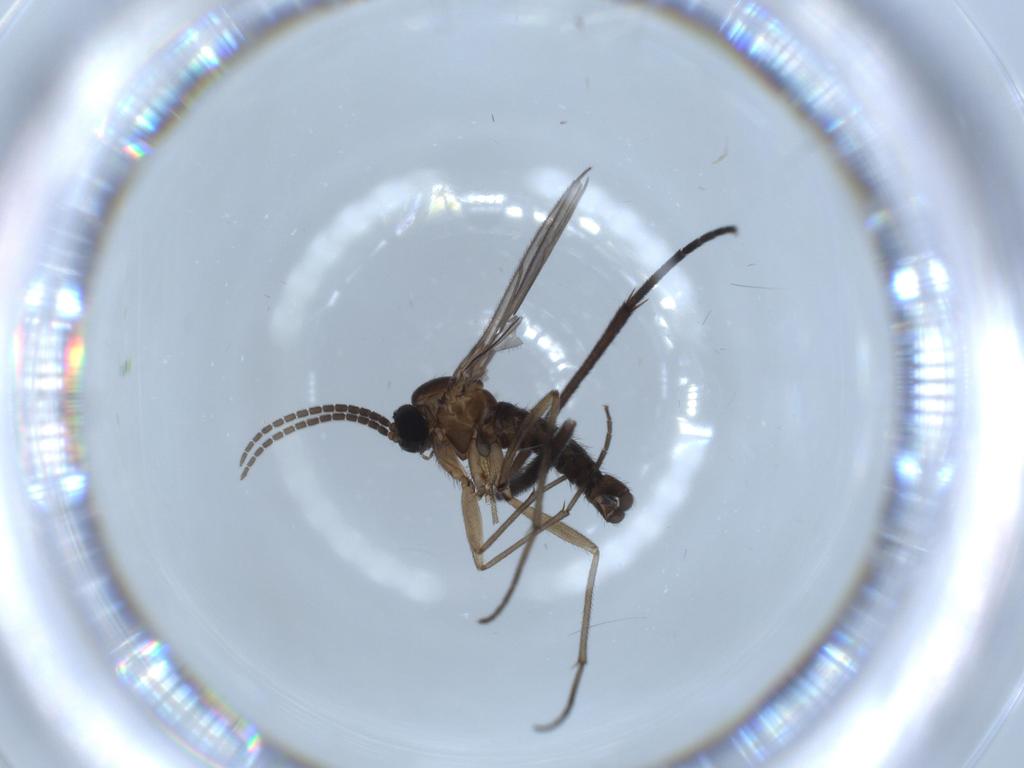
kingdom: Animalia
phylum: Arthropoda
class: Insecta
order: Diptera
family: Sciaridae
